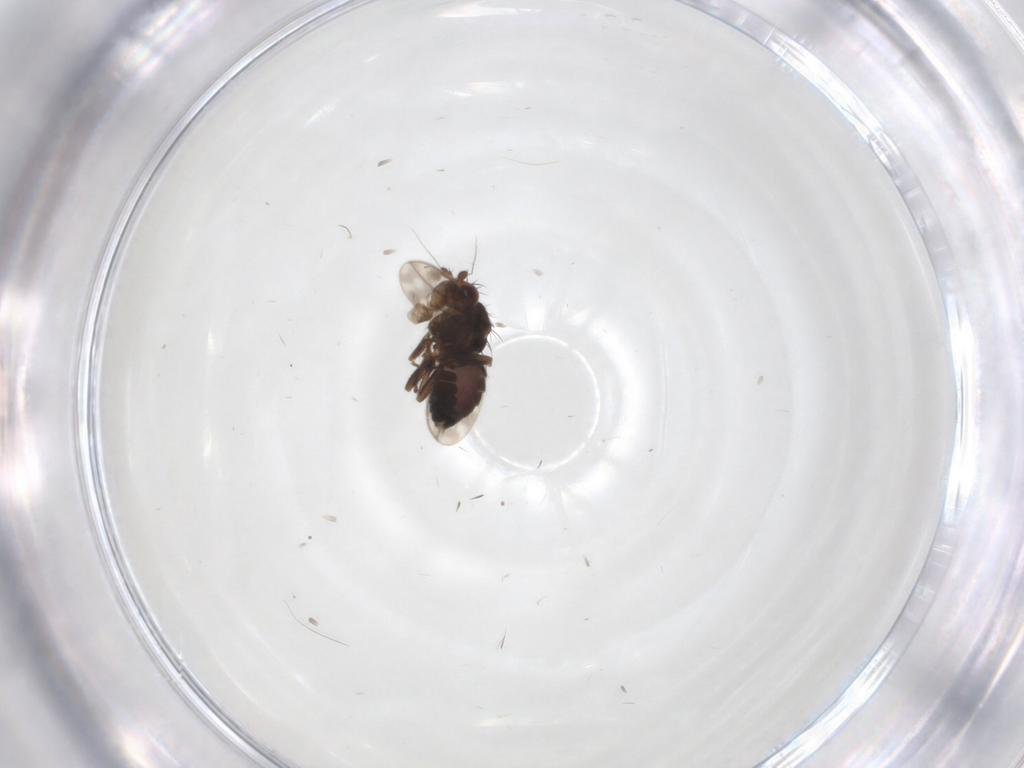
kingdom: Animalia
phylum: Arthropoda
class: Insecta
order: Diptera
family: Sphaeroceridae
